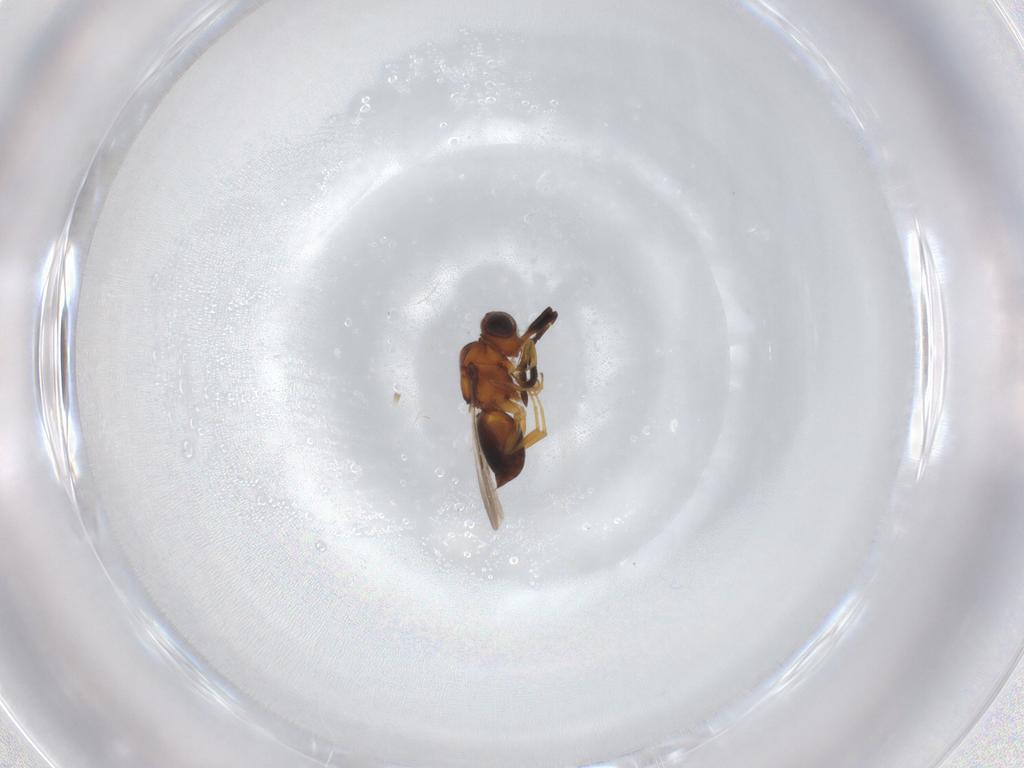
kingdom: Animalia
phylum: Arthropoda
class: Insecta
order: Hymenoptera
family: Ceraphronidae
